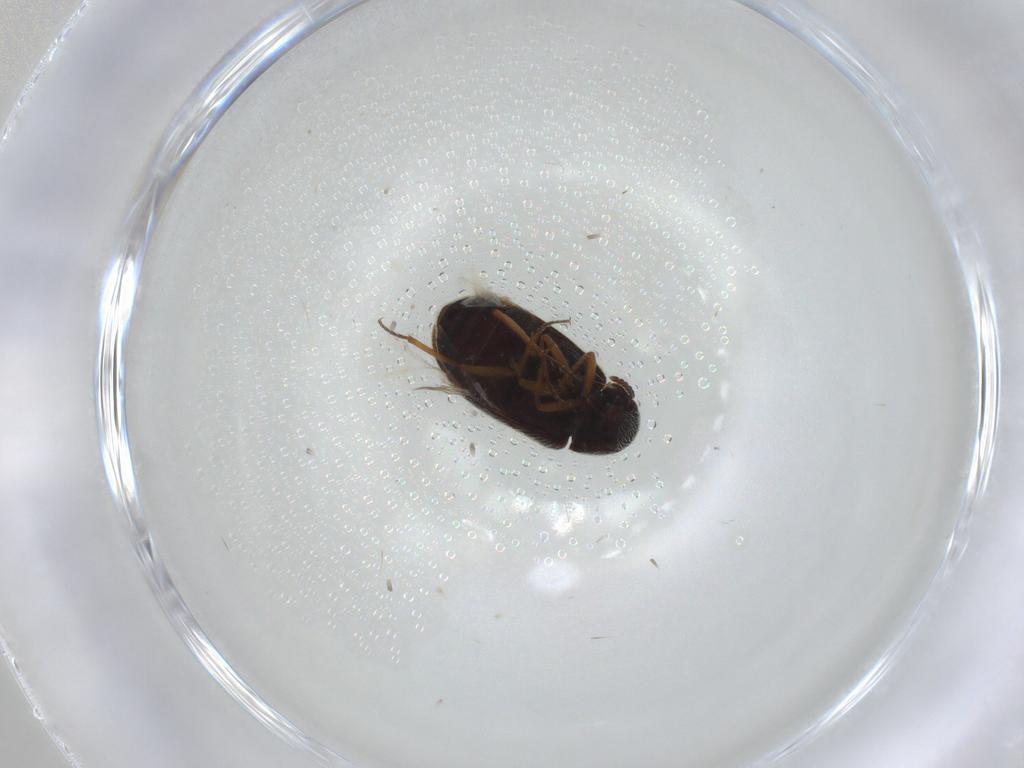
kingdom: Animalia
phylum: Arthropoda
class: Insecta
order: Coleoptera
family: Rhadalidae
